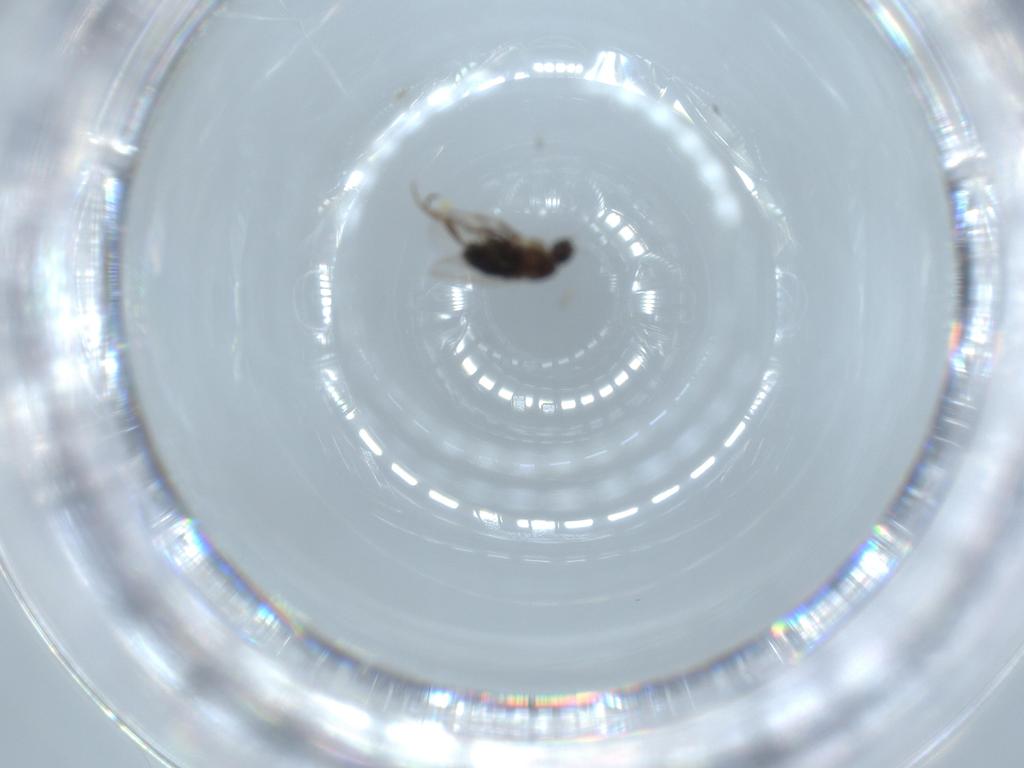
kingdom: Animalia
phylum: Arthropoda
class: Insecta
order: Diptera
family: Phoridae
